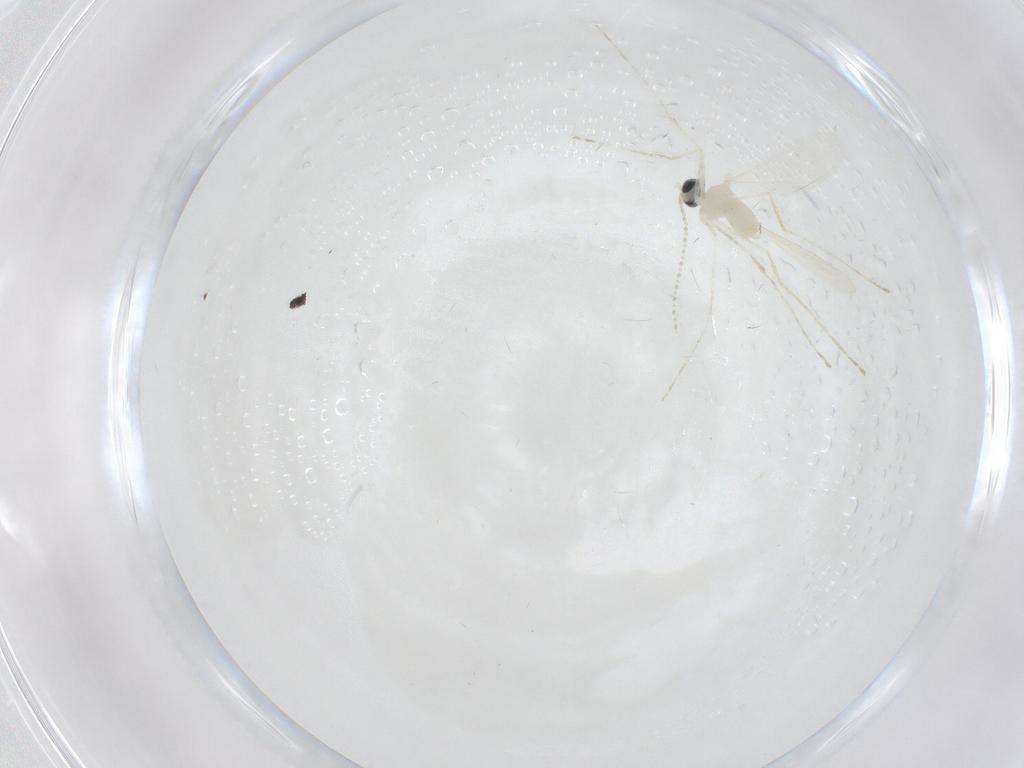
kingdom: Animalia
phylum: Arthropoda
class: Insecta
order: Diptera
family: Cecidomyiidae
